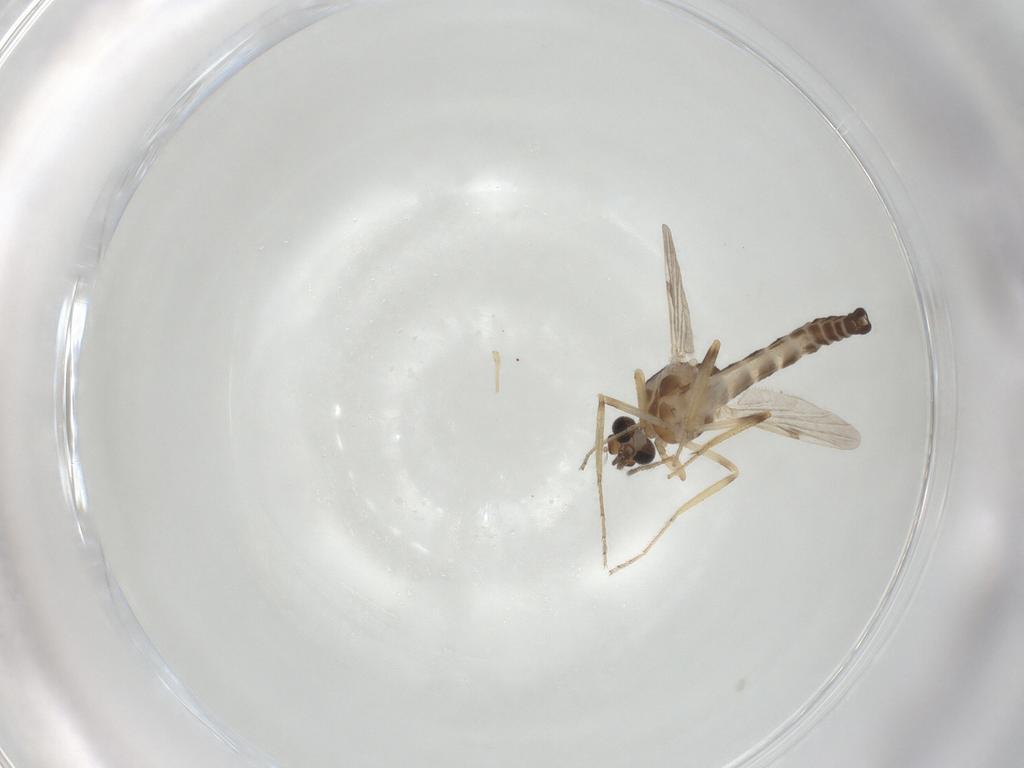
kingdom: Animalia
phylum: Arthropoda
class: Insecta
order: Diptera
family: Ceratopogonidae
